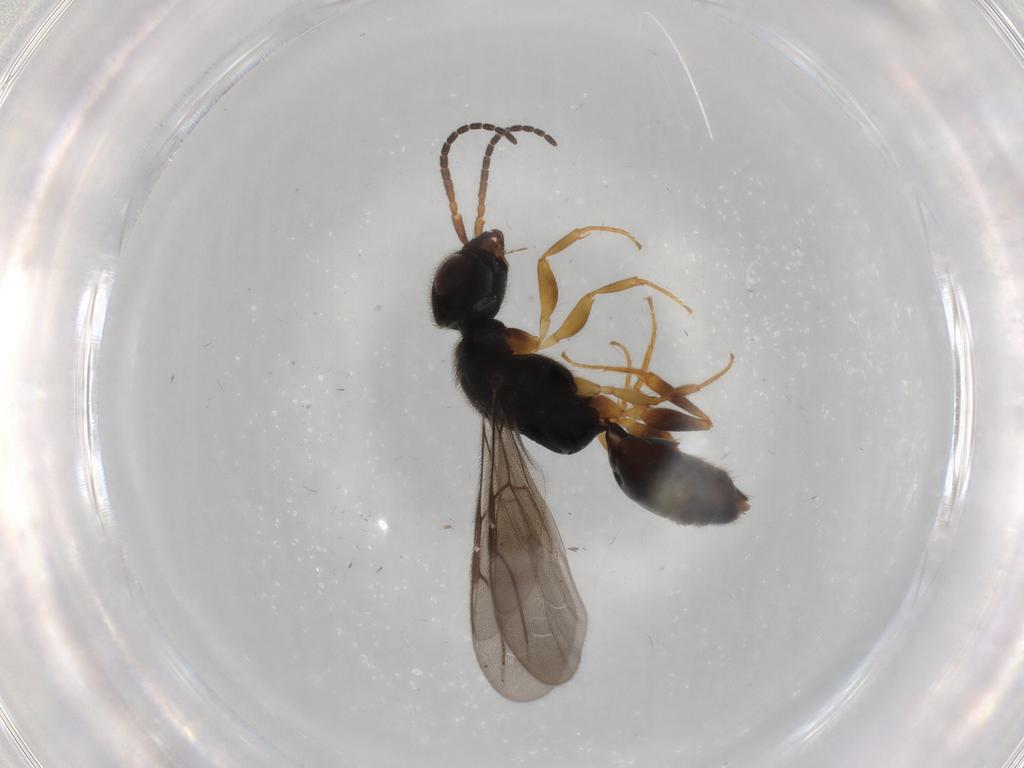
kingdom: Animalia
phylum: Arthropoda
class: Insecta
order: Hymenoptera
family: Bethylidae
